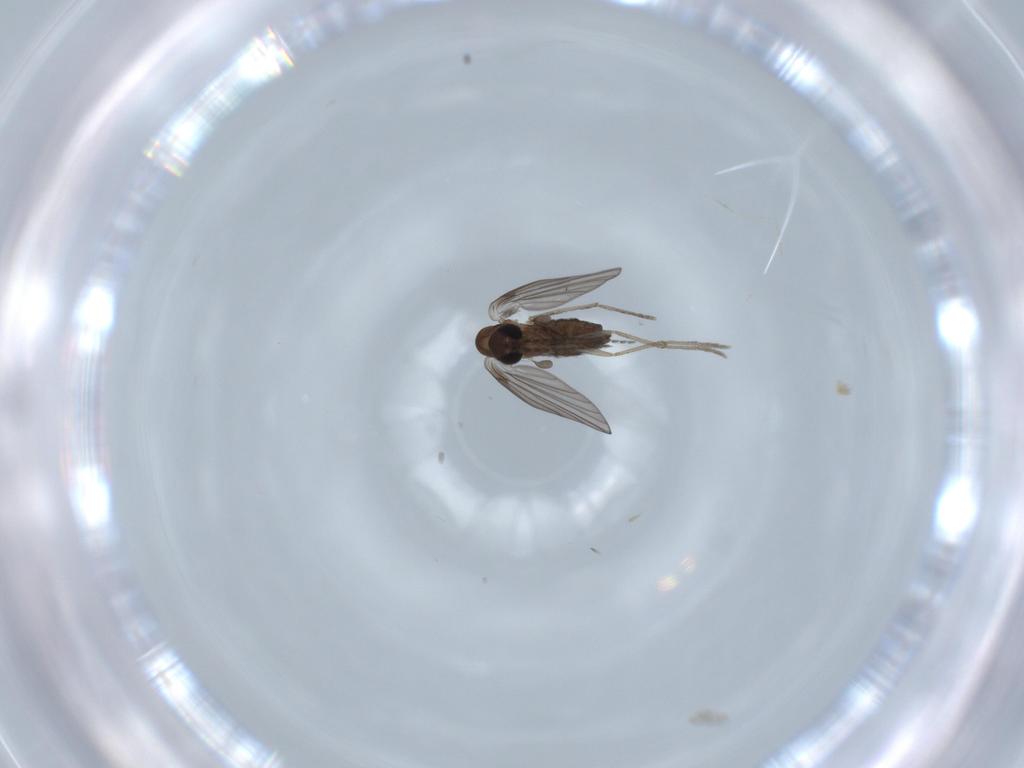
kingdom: Animalia
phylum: Arthropoda
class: Insecta
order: Diptera
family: Psychodidae
